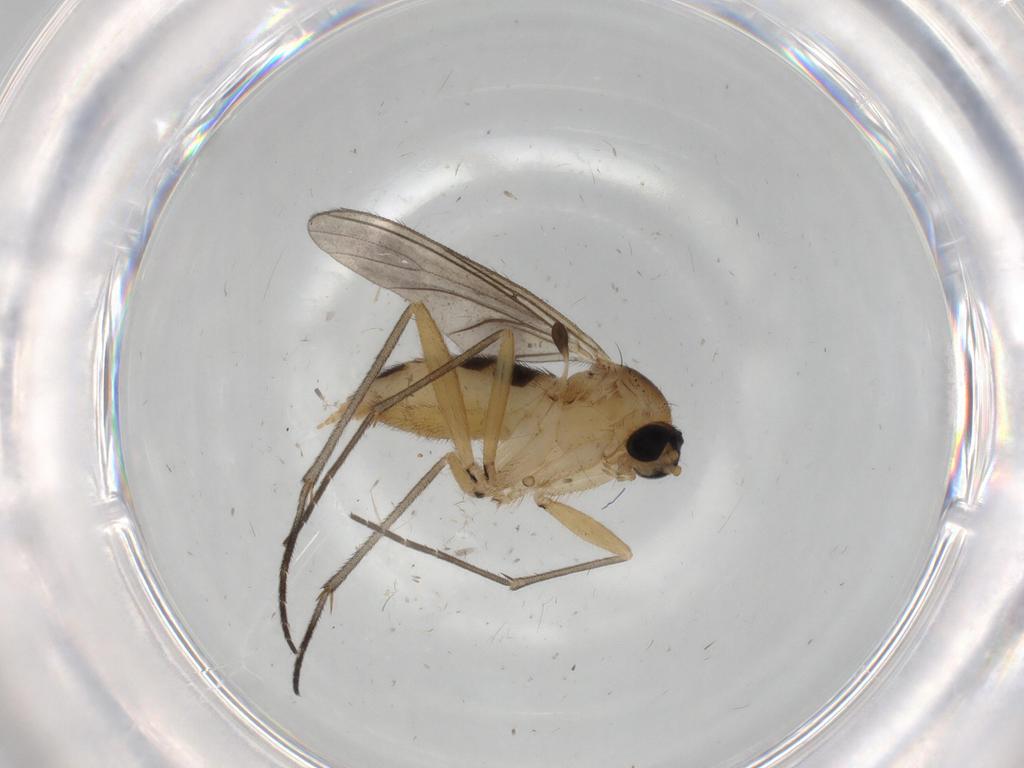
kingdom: Animalia
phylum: Arthropoda
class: Insecta
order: Diptera
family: Sciaridae
